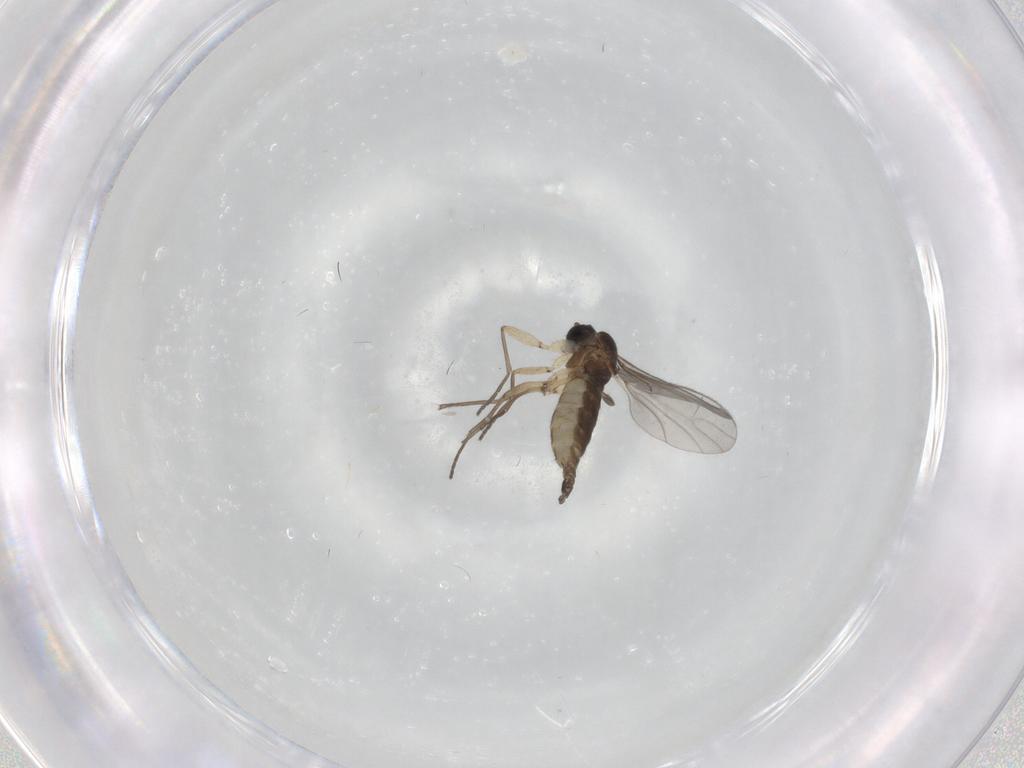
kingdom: Animalia
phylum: Arthropoda
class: Insecta
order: Diptera
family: Sciaridae
